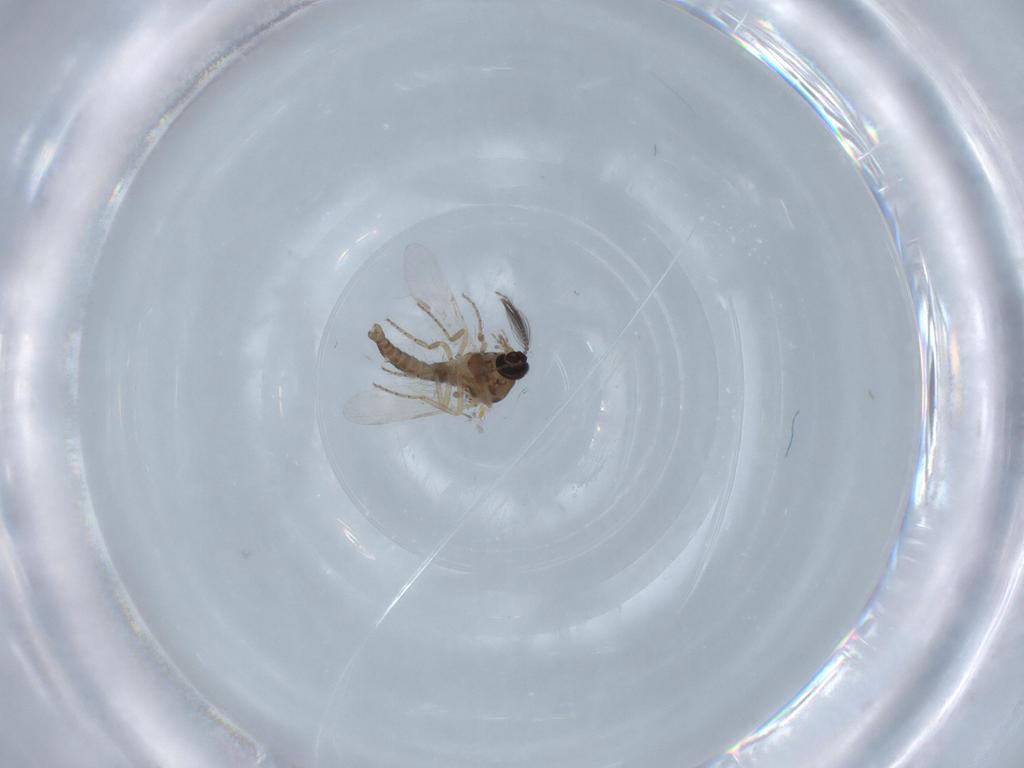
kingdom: Animalia
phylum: Arthropoda
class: Insecta
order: Diptera
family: Ceratopogonidae
